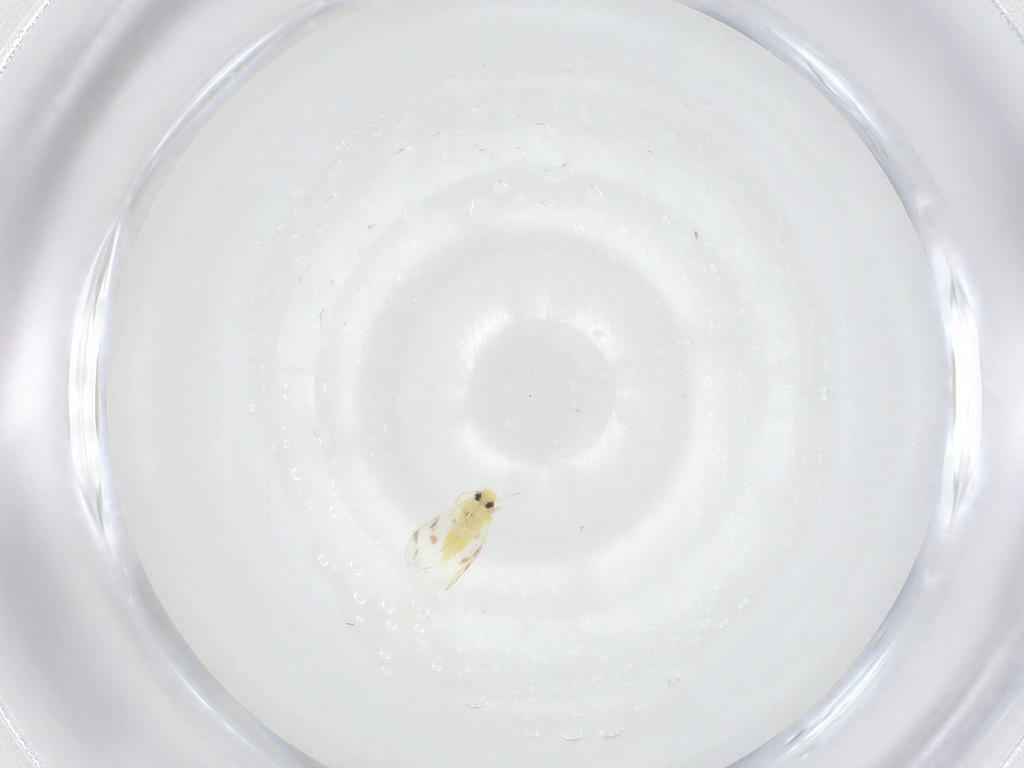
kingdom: Animalia
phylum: Arthropoda
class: Insecta
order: Hemiptera
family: Aleyrodidae
